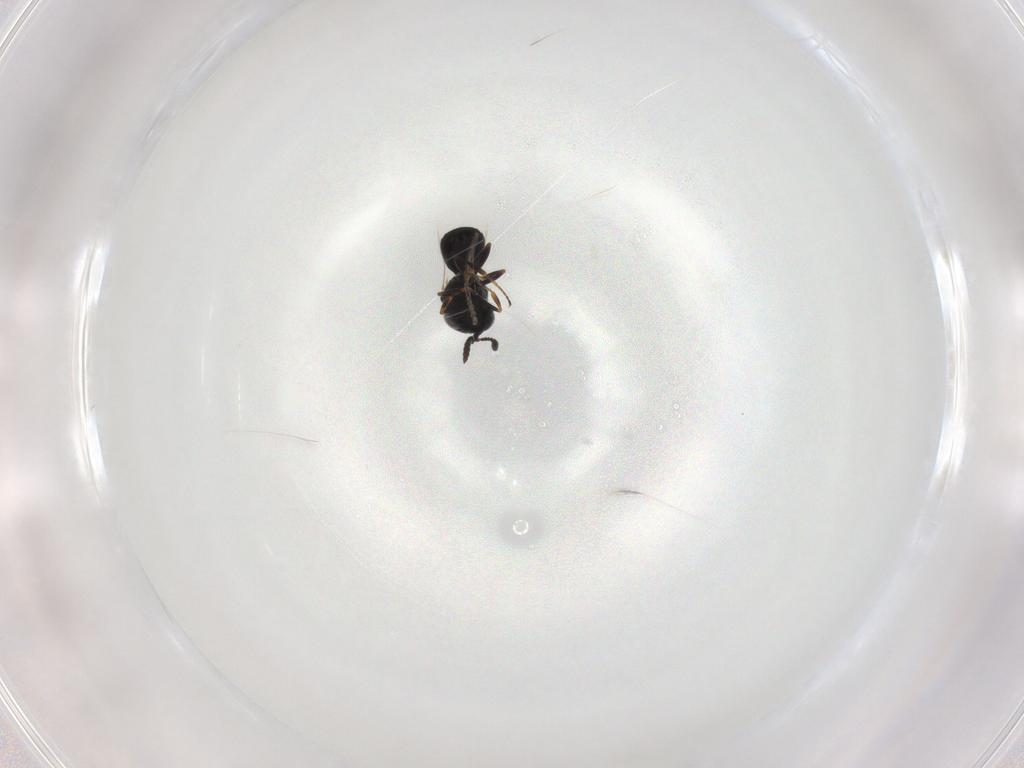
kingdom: Animalia
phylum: Arthropoda
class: Insecta
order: Diptera
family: Psychodidae
